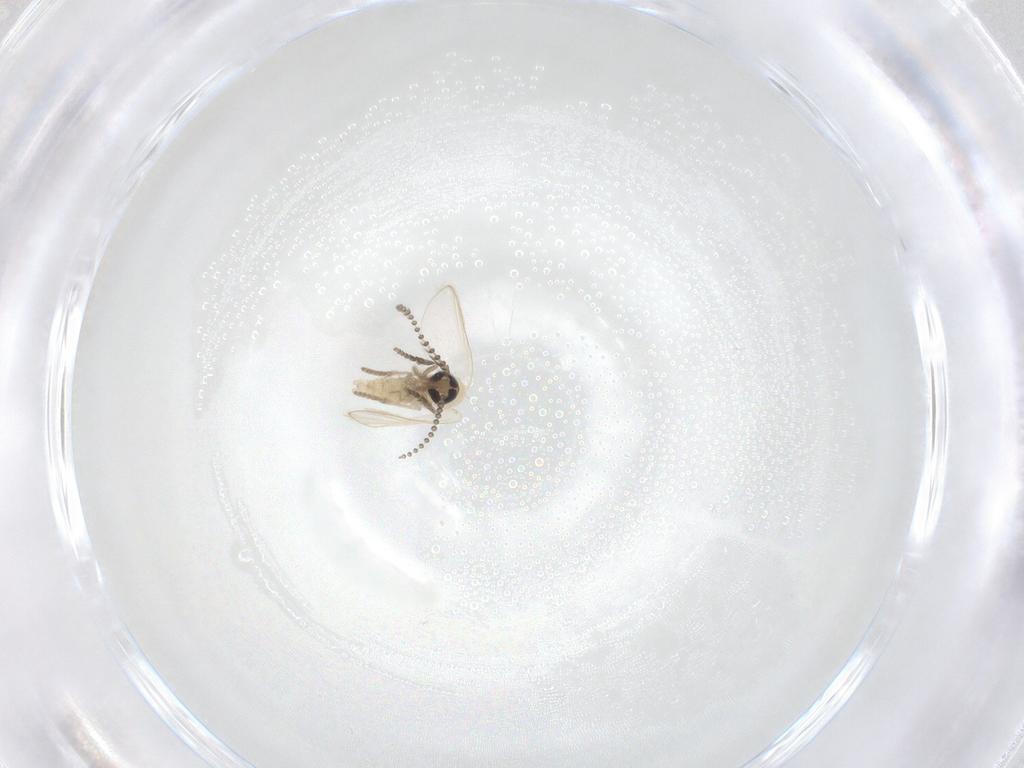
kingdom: Animalia
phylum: Arthropoda
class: Insecta
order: Diptera
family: Psychodidae
